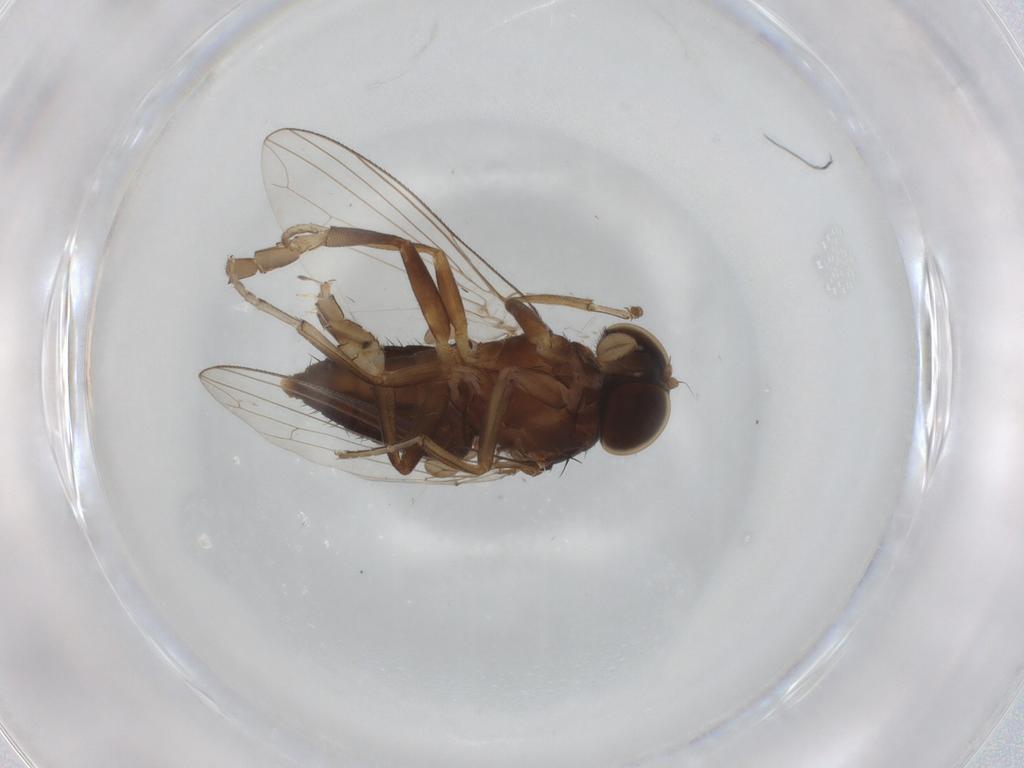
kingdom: Animalia
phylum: Arthropoda
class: Insecta
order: Diptera
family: Platypezidae
